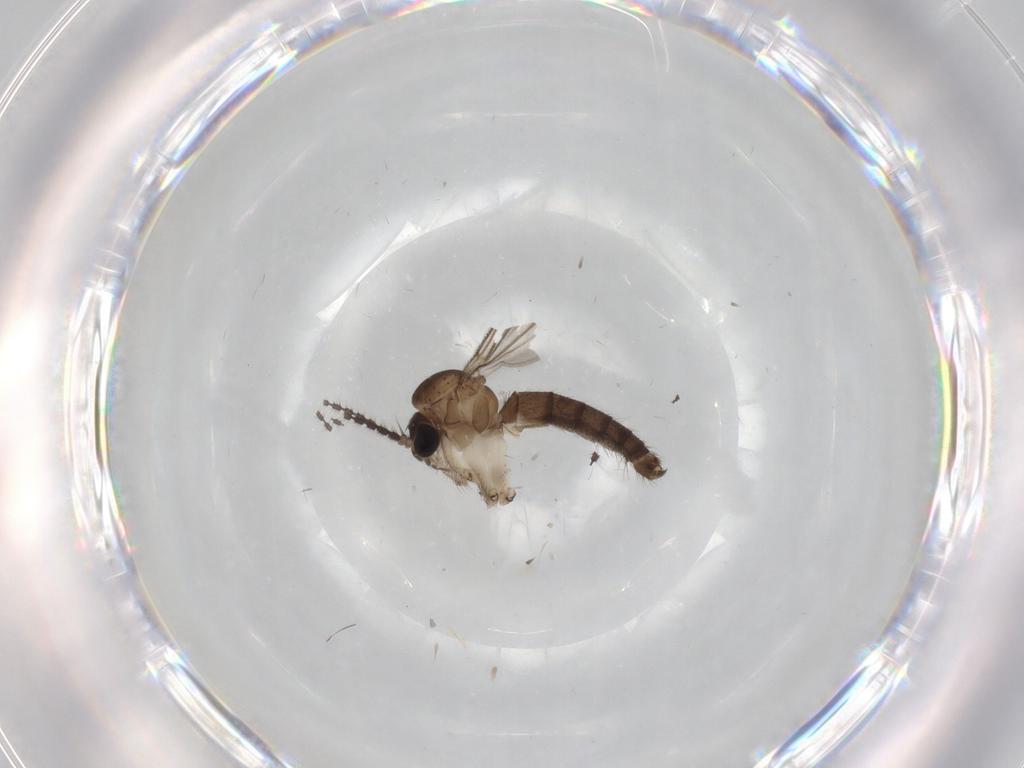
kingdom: Animalia
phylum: Arthropoda
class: Insecta
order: Diptera
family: Mycetophilidae
